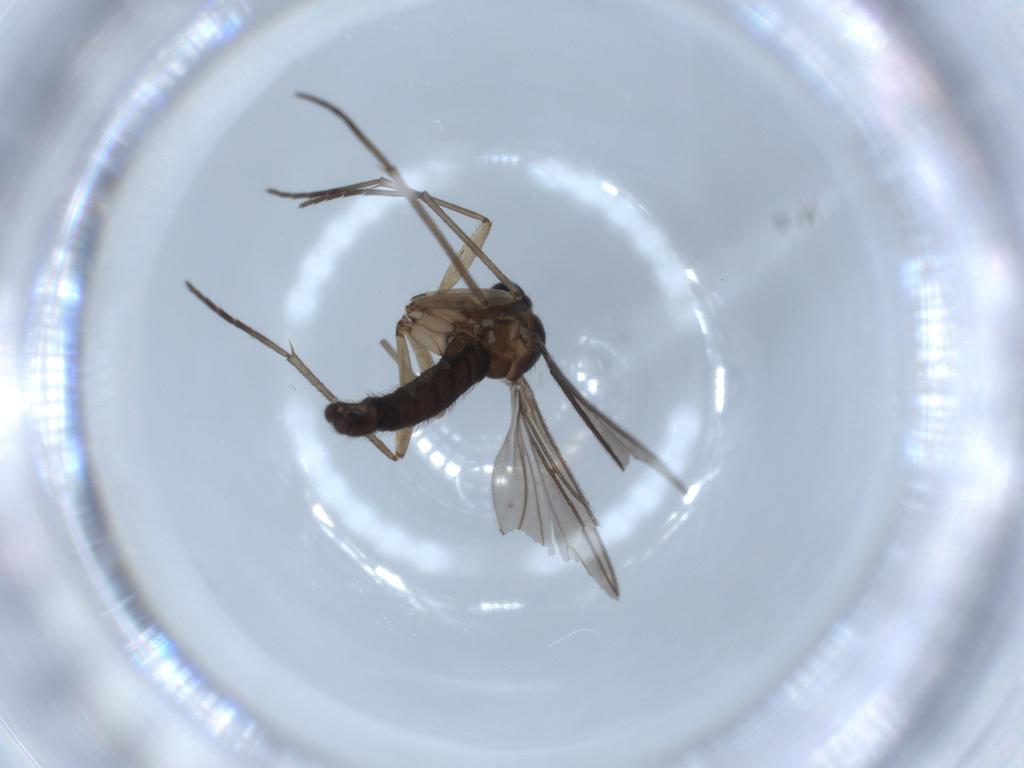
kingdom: Animalia
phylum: Arthropoda
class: Insecta
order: Diptera
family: Sciaridae
